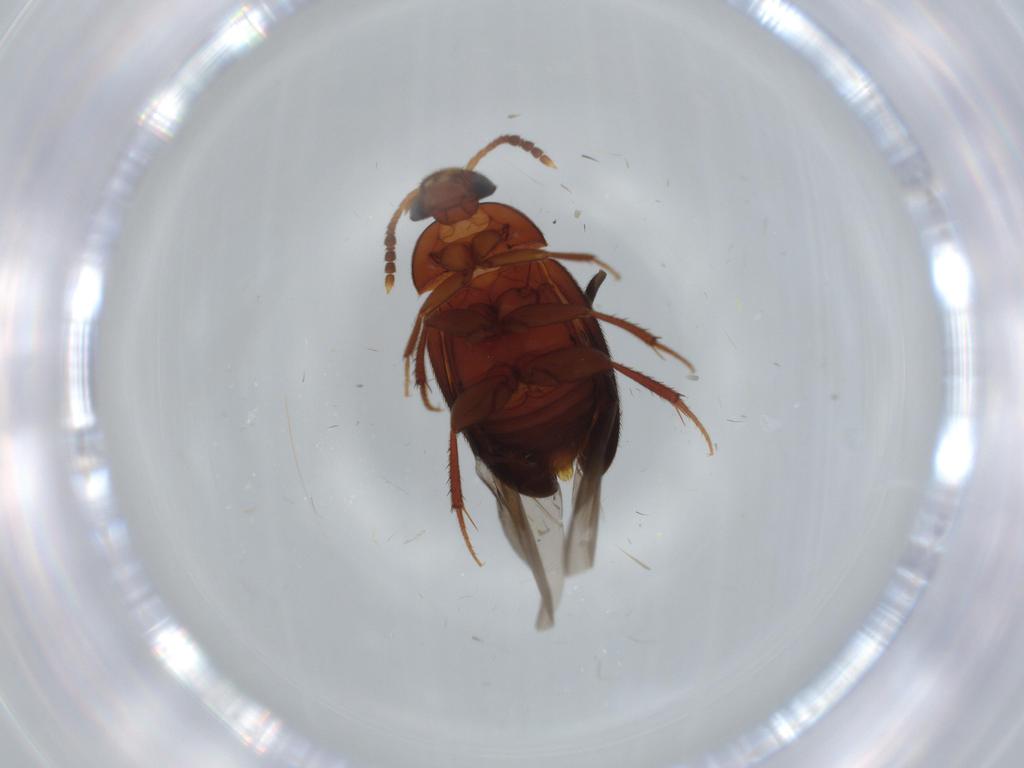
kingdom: Animalia
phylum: Arthropoda
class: Insecta
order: Coleoptera
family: Leiodidae
